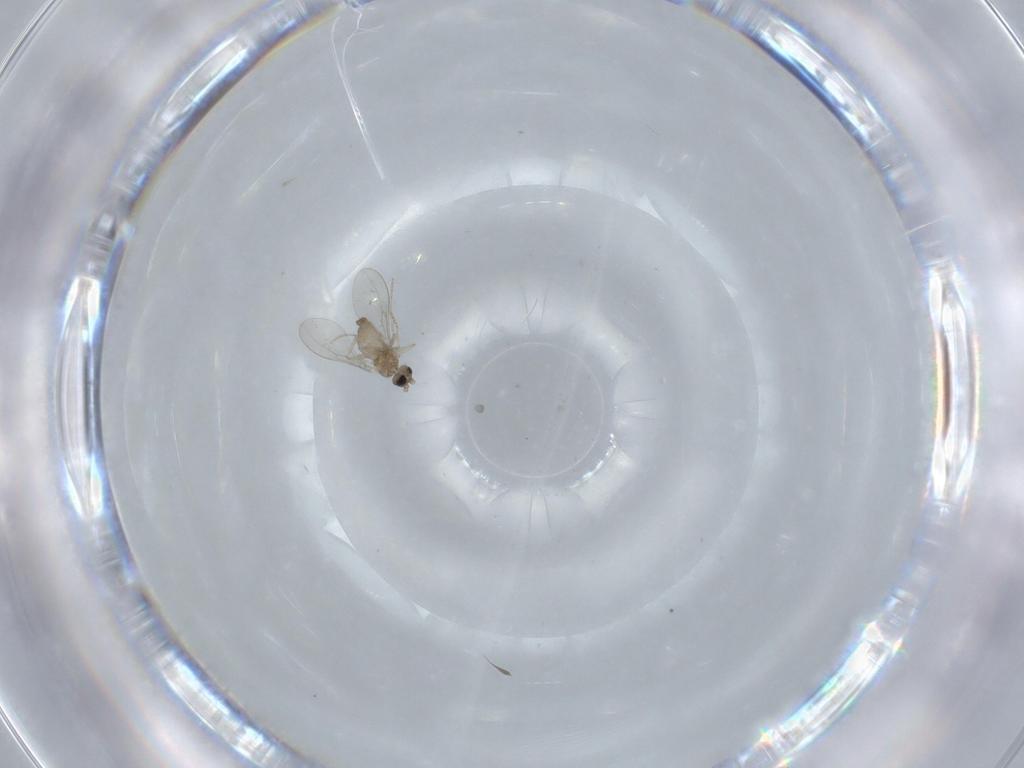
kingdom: Animalia
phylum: Arthropoda
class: Insecta
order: Diptera
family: Cecidomyiidae
